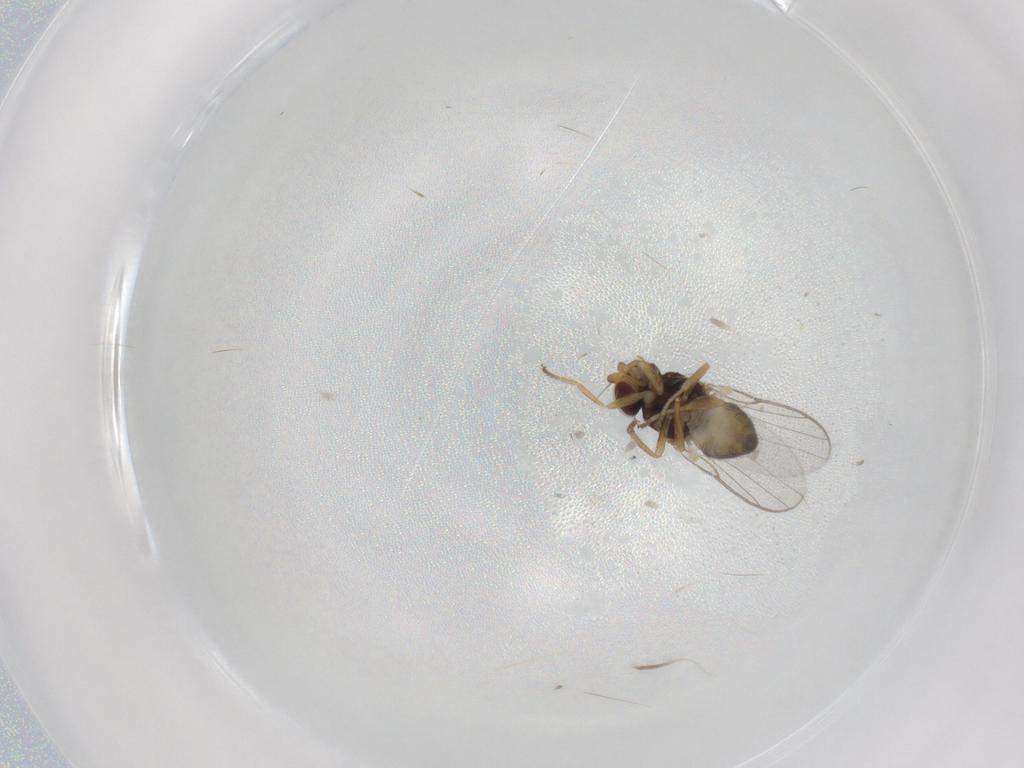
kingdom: Animalia
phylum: Arthropoda
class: Insecta
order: Diptera
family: Chloropidae
